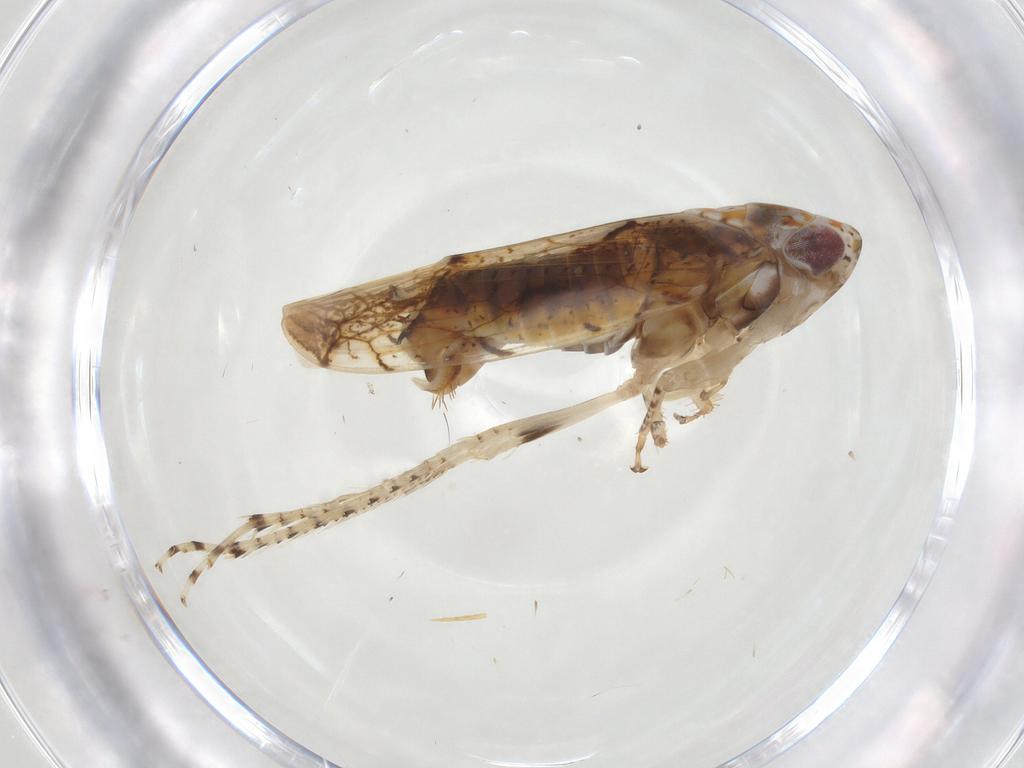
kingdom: Animalia
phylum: Arthropoda
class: Insecta
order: Hemiptera
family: Cicadellidae
